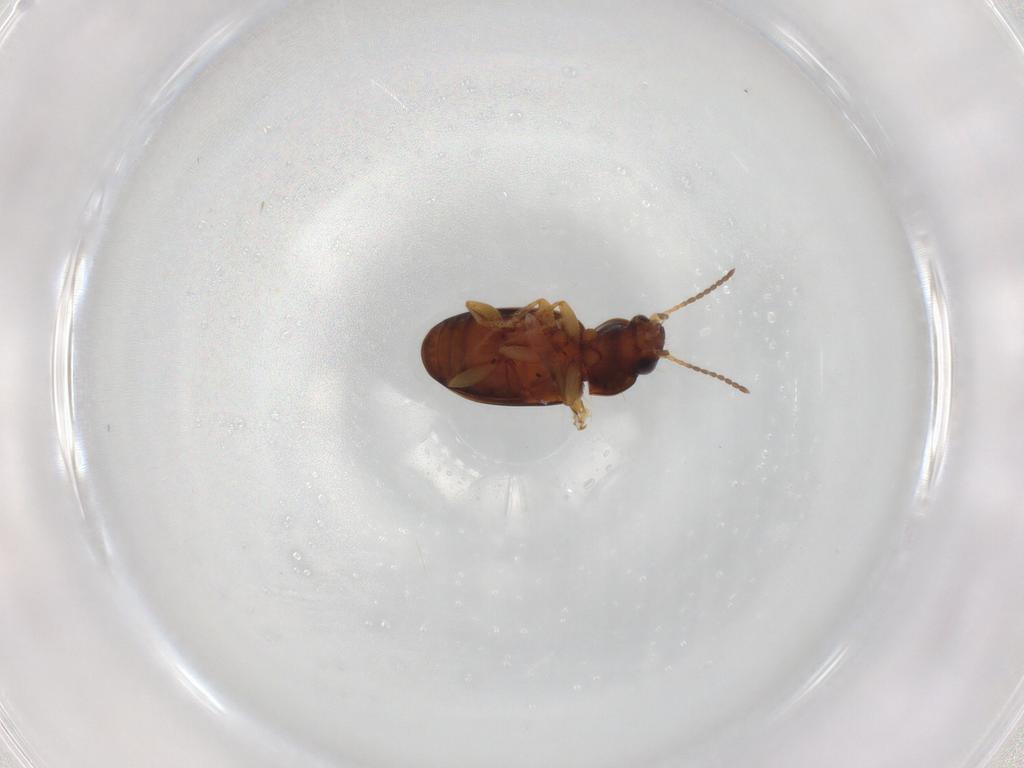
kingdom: Animalia
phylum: Arthropoda
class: Insecta
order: Coleoptera
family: Carabidae
